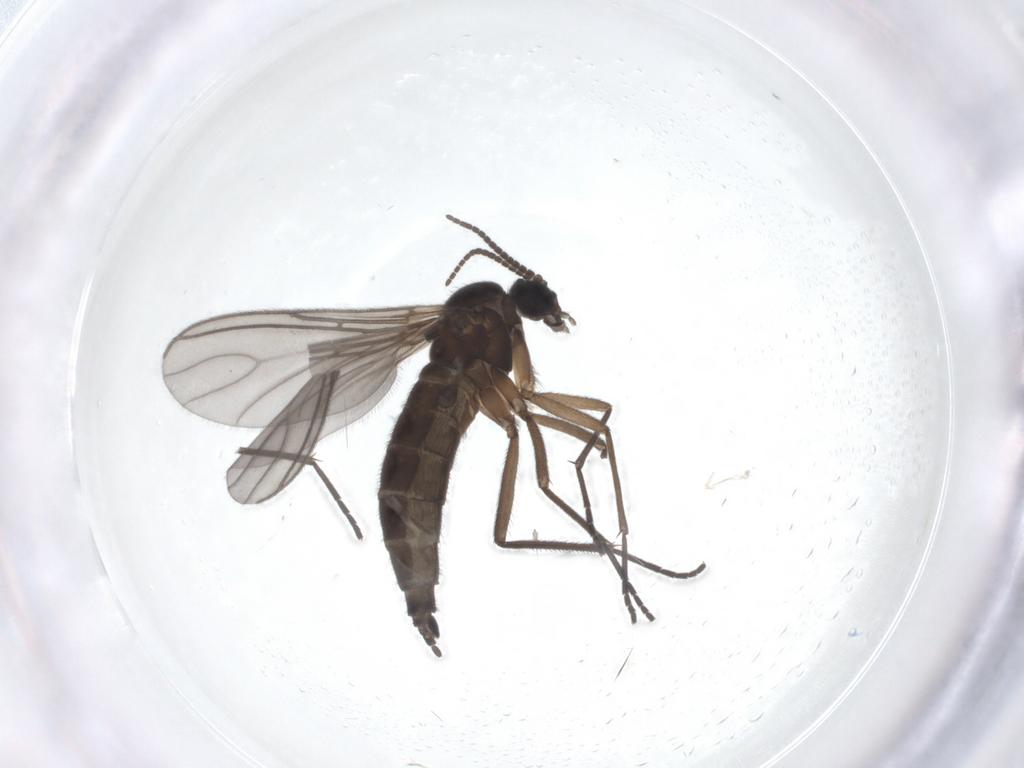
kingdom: Animalia
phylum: Arthropoda
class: Insecta
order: Diptera
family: Sciaridae
